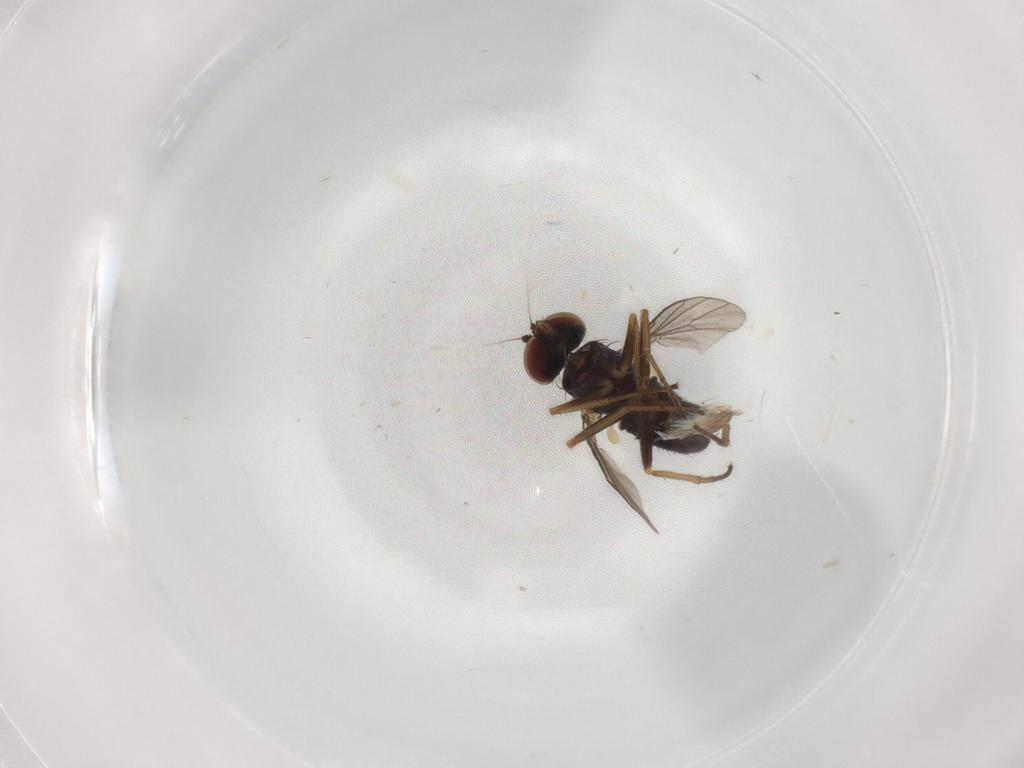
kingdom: Animalia
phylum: Arthropoda
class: Insecta
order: Diptera
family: Dolichopodidae
